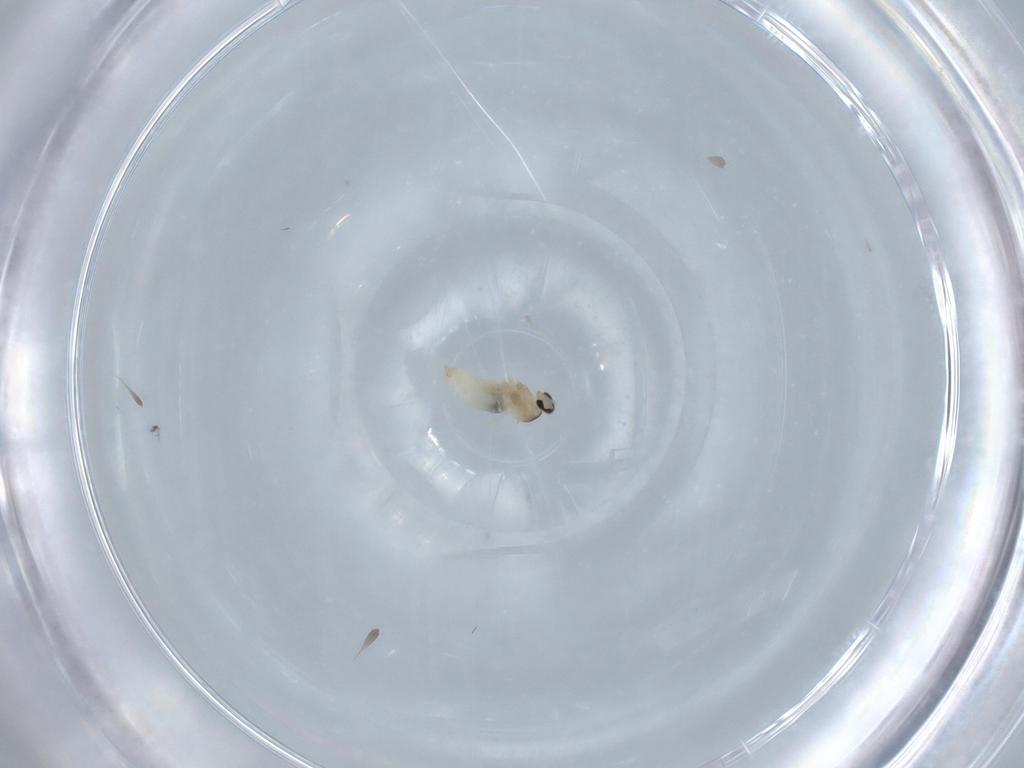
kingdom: Animalia
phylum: Arthropoda
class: Insecta
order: Diptera
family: Cecidomyiidae
